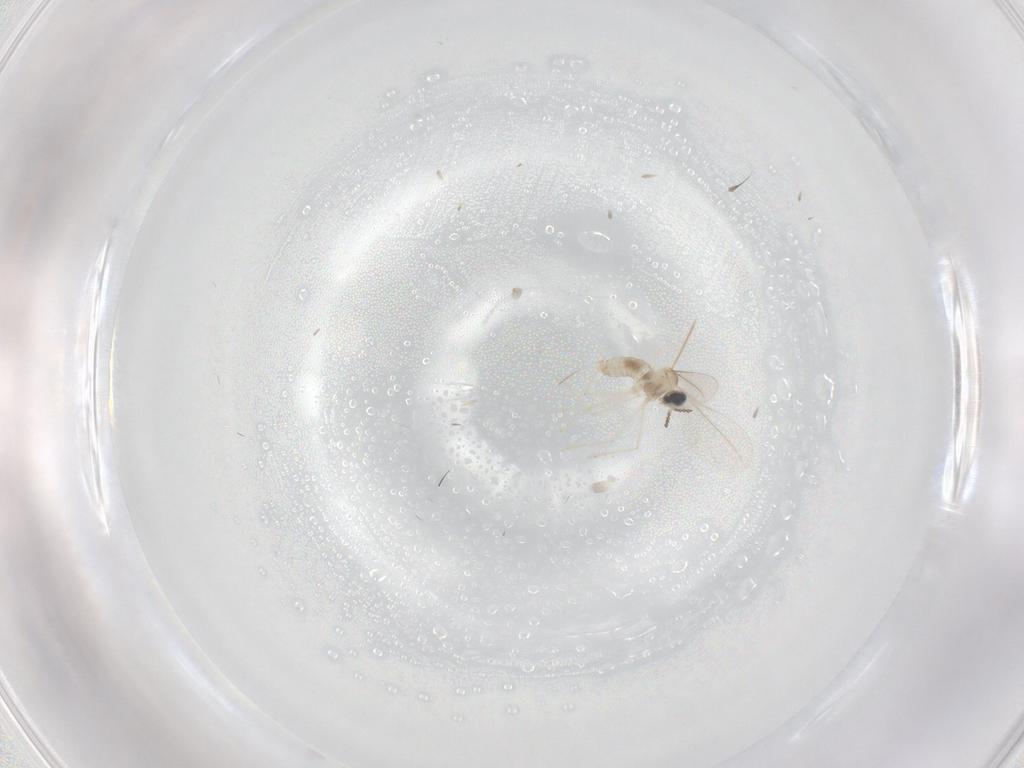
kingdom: Animalia
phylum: Arthropoda
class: Insecta
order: Diptera
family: Cecidomyiidae
